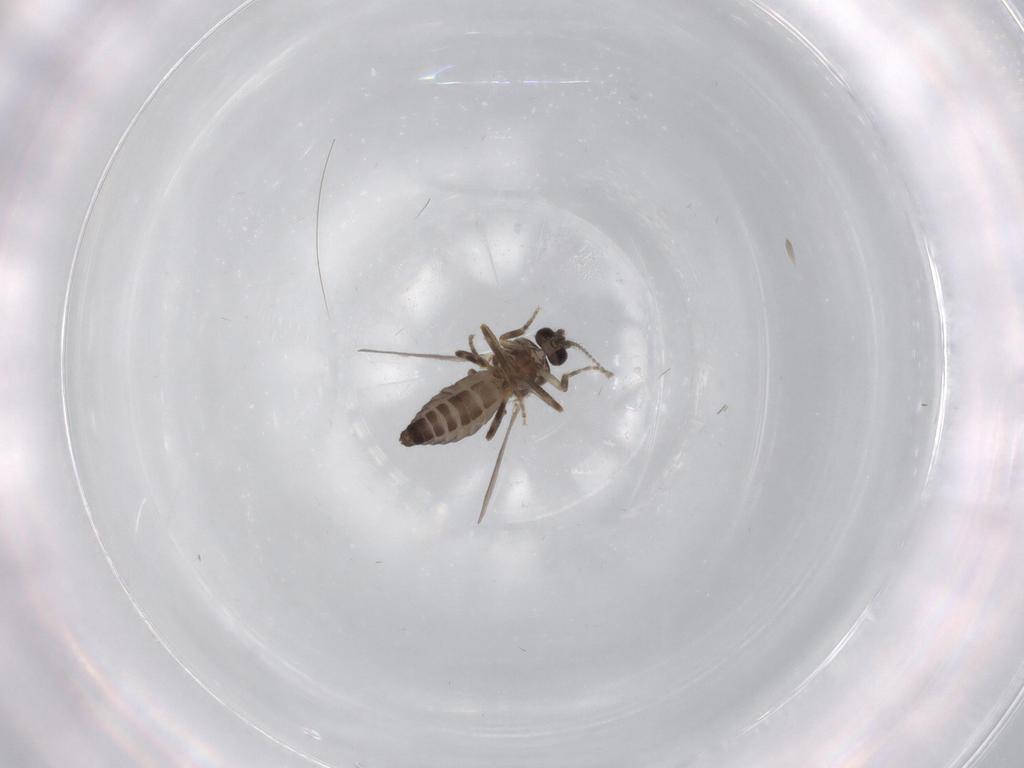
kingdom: Animalia
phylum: Arthropoda
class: Insecta
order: Diptera
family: Ceratopogonidae
